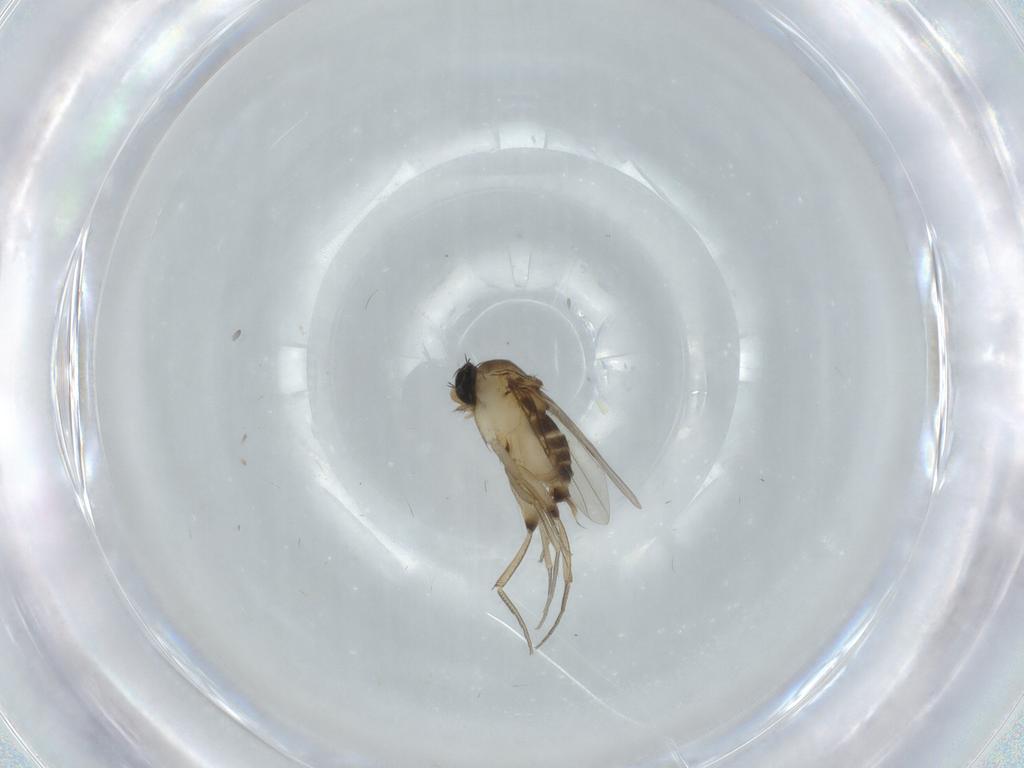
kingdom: Animalia
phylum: Arthropoda
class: Insecta
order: Diptera
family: Phoridae
